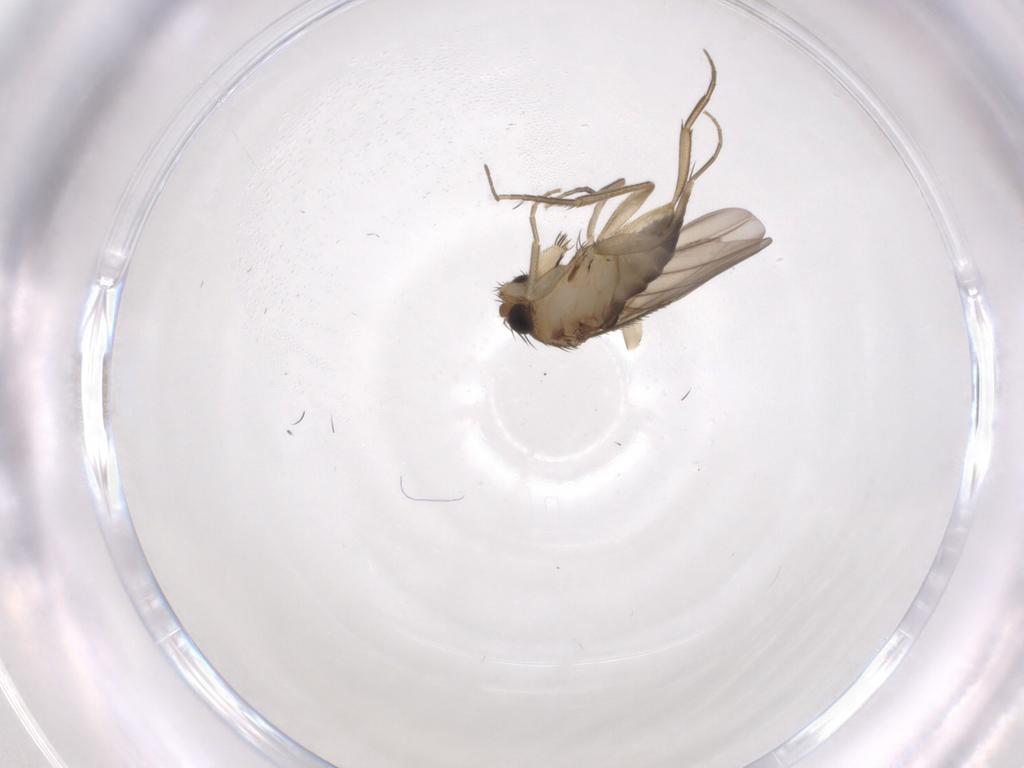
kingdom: Animalia
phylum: Arthropoda
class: Insecta
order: Diptera
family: Phoridae
